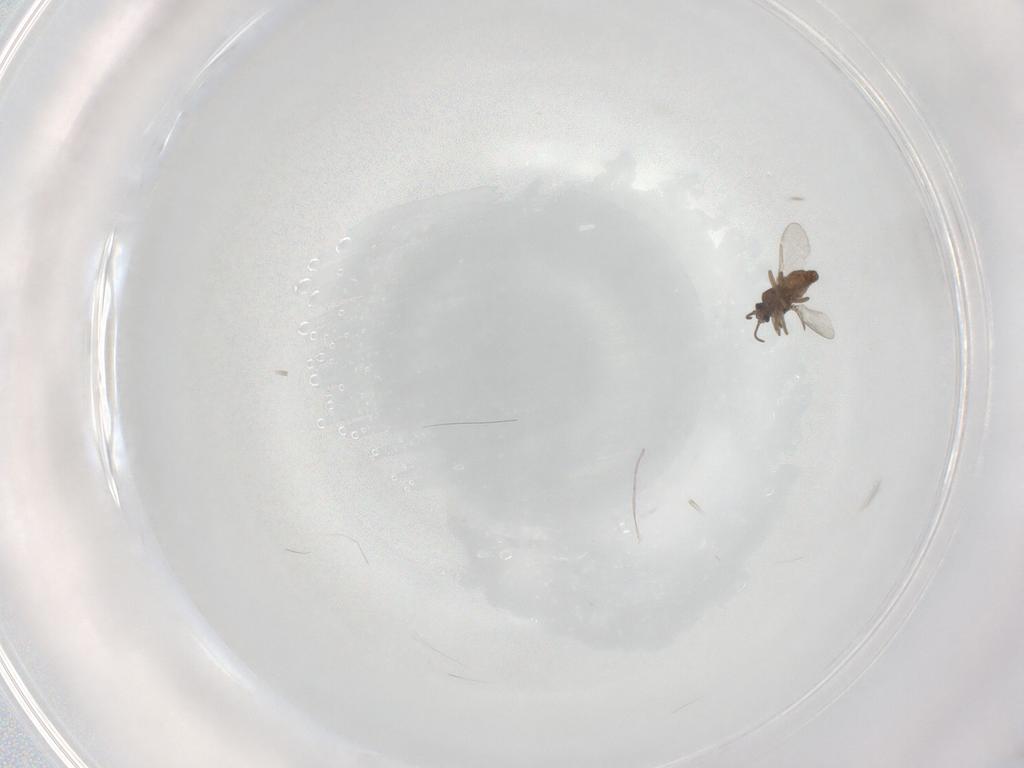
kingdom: Animalia
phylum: Arthropoda
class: Insecta
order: Diptera
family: Ceratopogonidae
